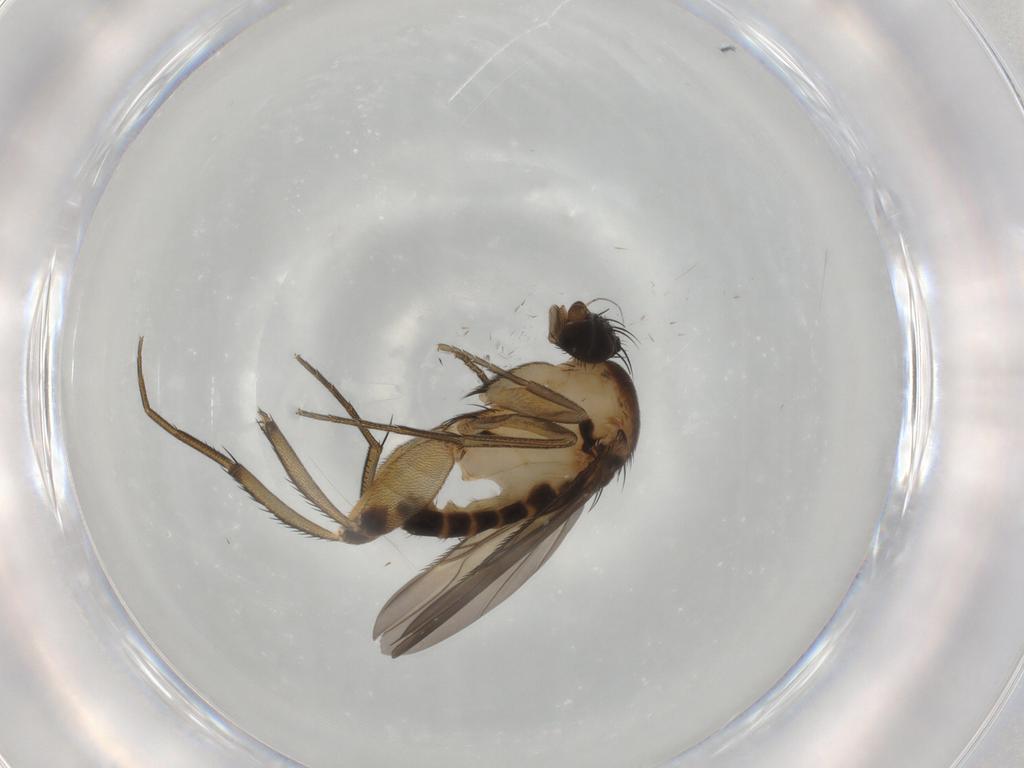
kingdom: Animalia
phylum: Arthropoda
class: Insecta
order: Diptera
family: Phoridae
